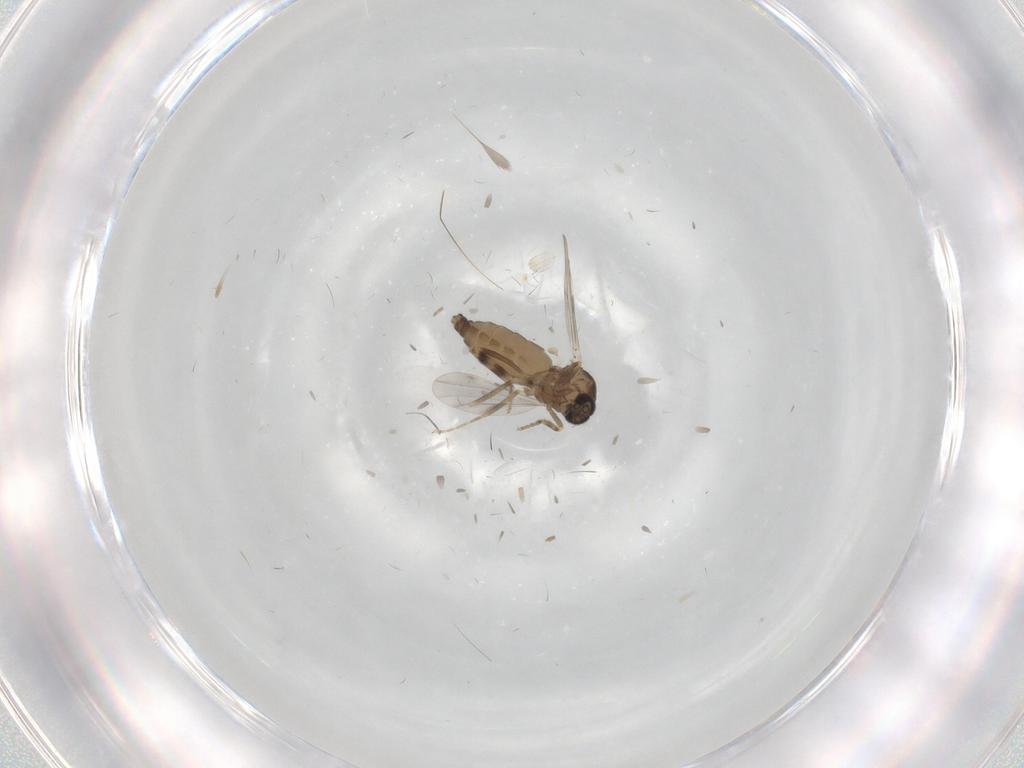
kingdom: Animalia
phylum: Arthropoda
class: Insecta
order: Diptera
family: Ceratopogonidae
